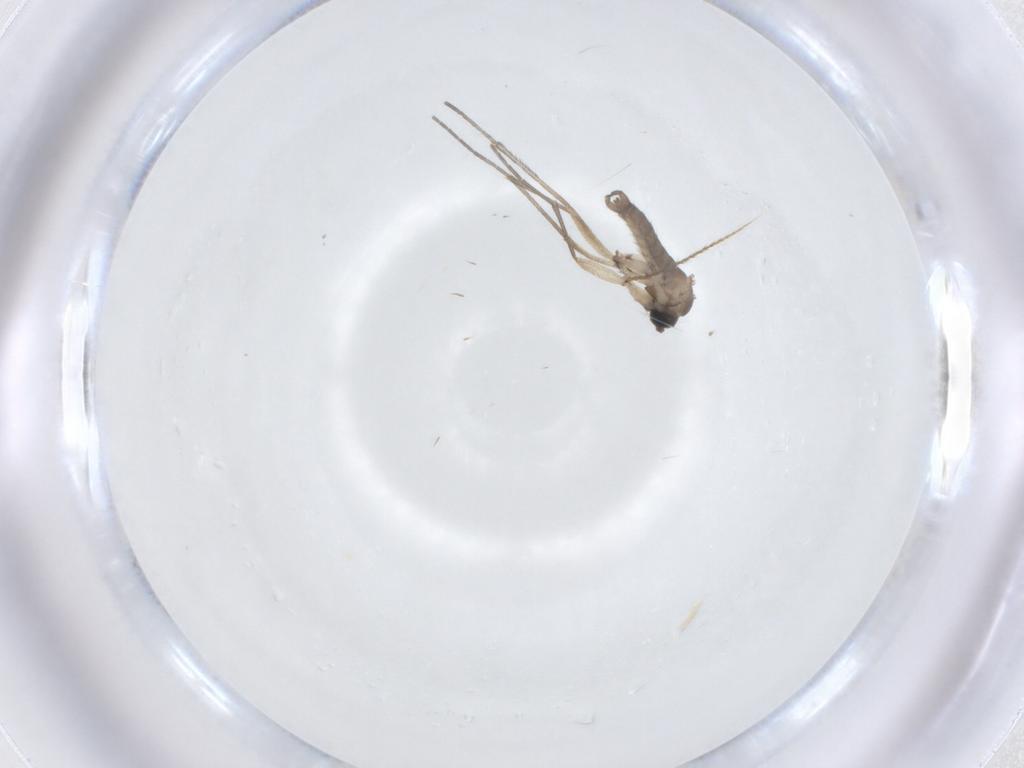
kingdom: Animalia
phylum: Arthropoda
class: Insecta
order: Diptera
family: Sciaridae
